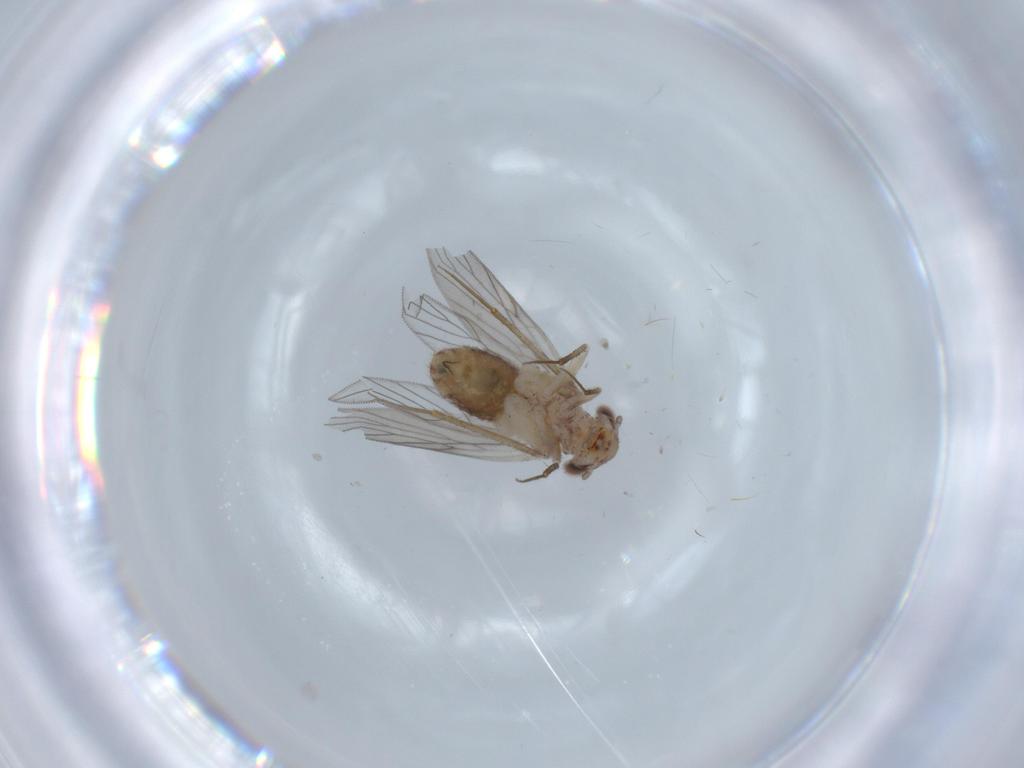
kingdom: Animalia
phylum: Arthropoda
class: Insecta
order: Psocodea
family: Lepidopsocidae
